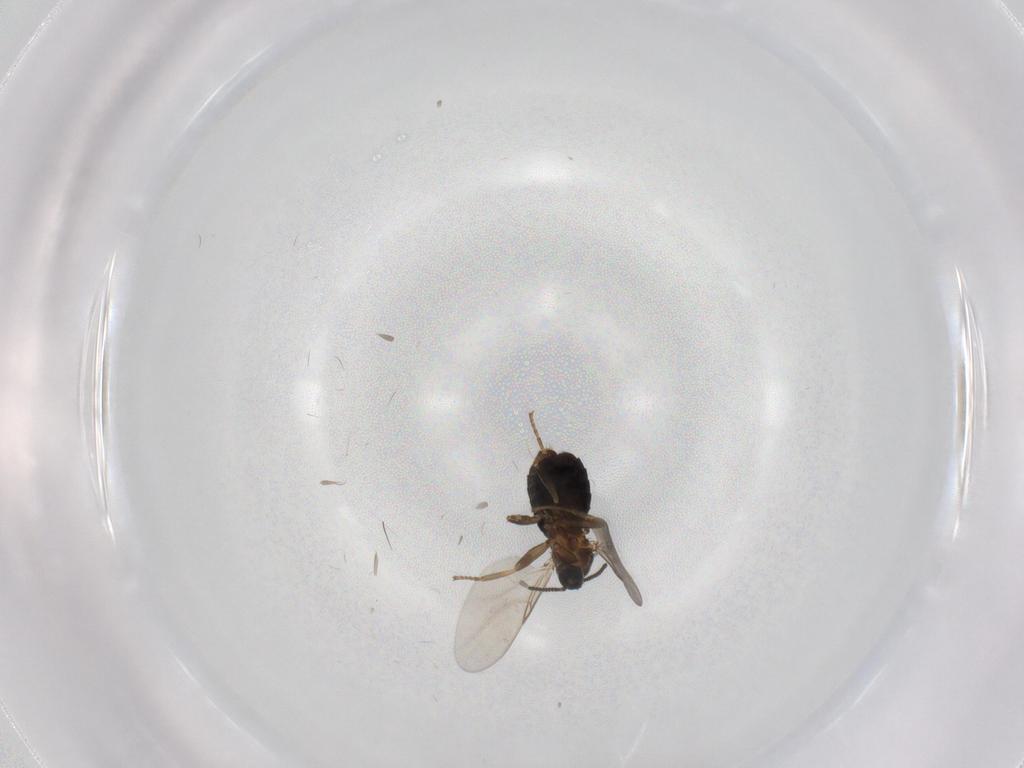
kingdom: Animalia
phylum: Arthropoda
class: Insecta
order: Diptera
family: Scatopsidae
